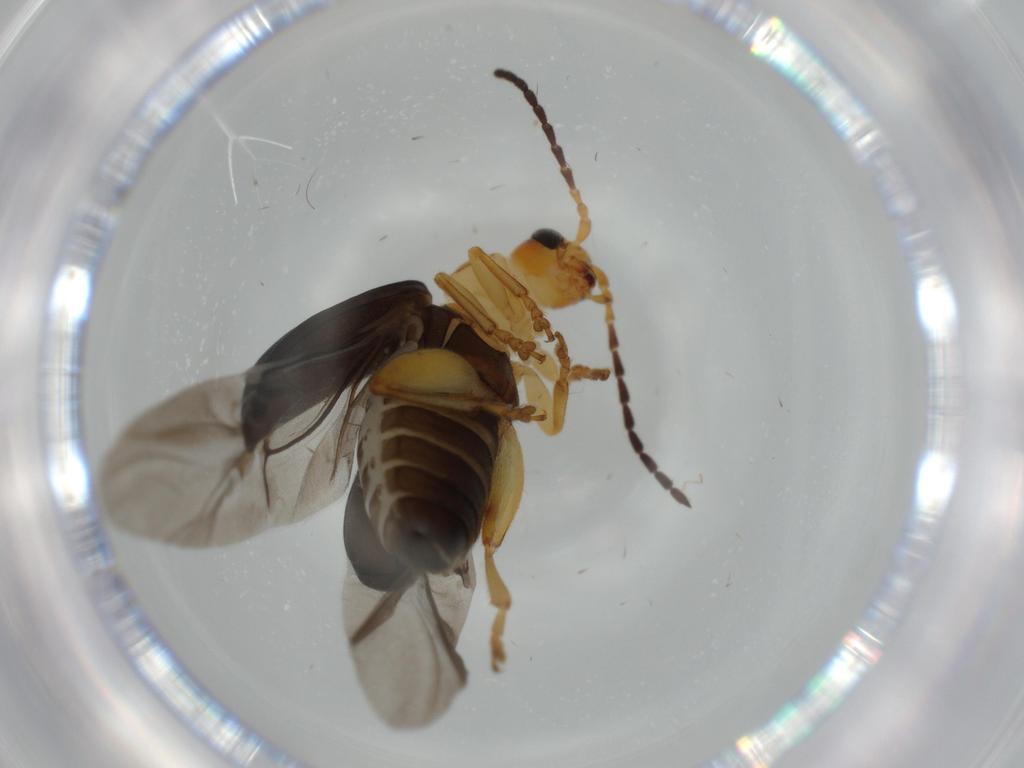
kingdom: Animalia
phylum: Arthropoda
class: Insecta
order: Coleoptera
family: Chrysomelidae
